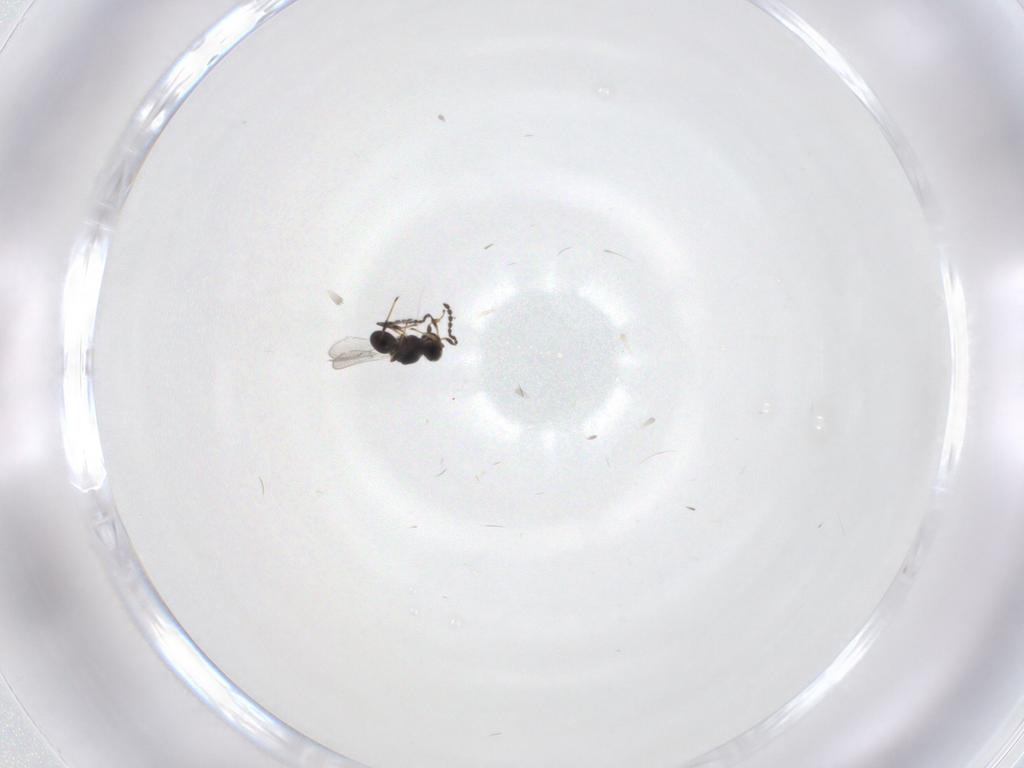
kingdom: Animalia
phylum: Arthropoda
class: Insecta
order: Hymenoptera
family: Platygastridae
